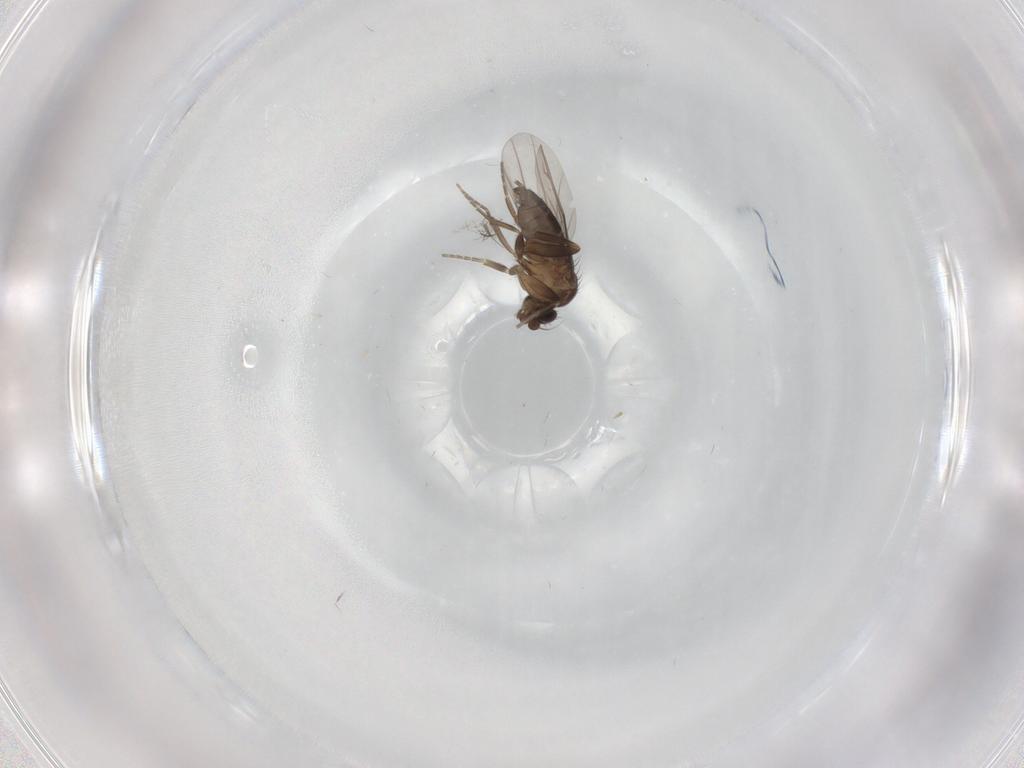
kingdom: Animalia
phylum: Arthropoda
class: Insecta
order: Diptera
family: Phoridae
